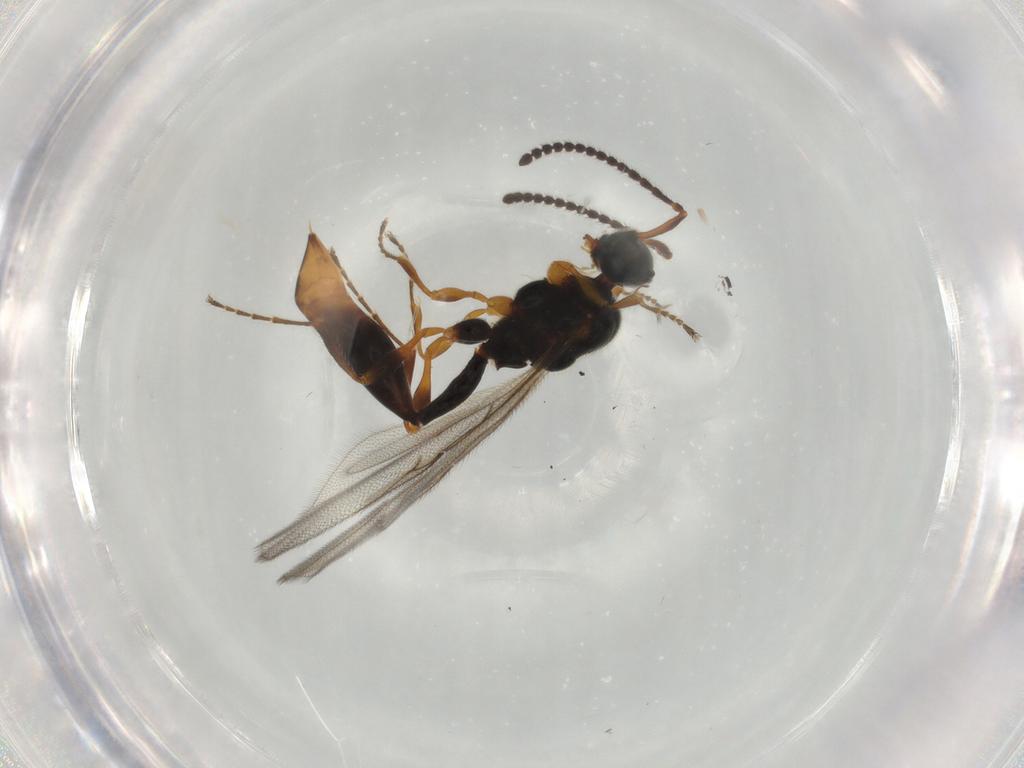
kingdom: Animalia
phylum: Arthropoda
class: Insecta
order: Hymenoptera
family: Diapriidae
